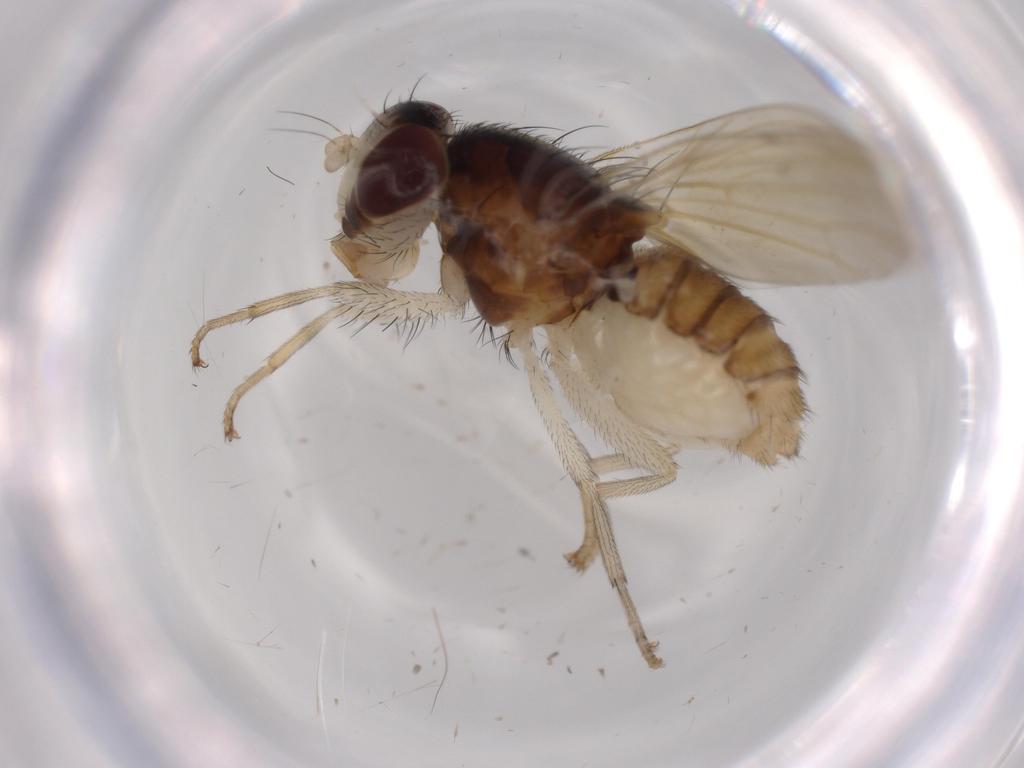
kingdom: Animalia
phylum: Arthropoda
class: Insecta
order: Diptera
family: Lauxaniidae
